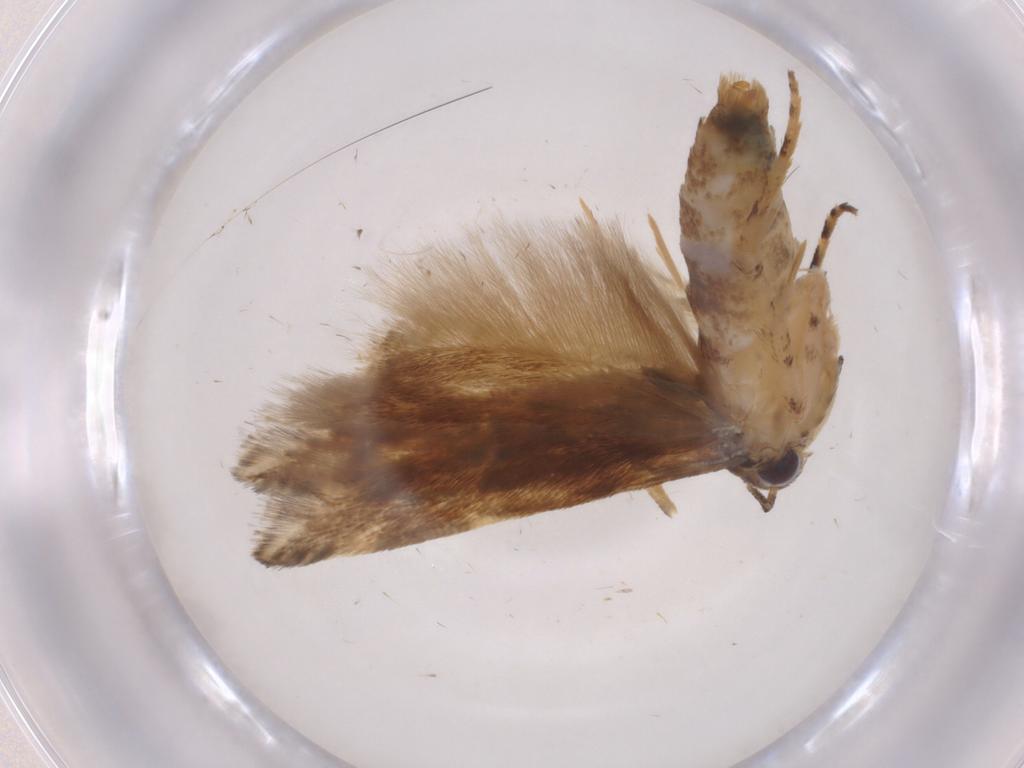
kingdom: Animalia
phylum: Arthropoda
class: Insecta
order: Lepidoptera
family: Gelechiidae
